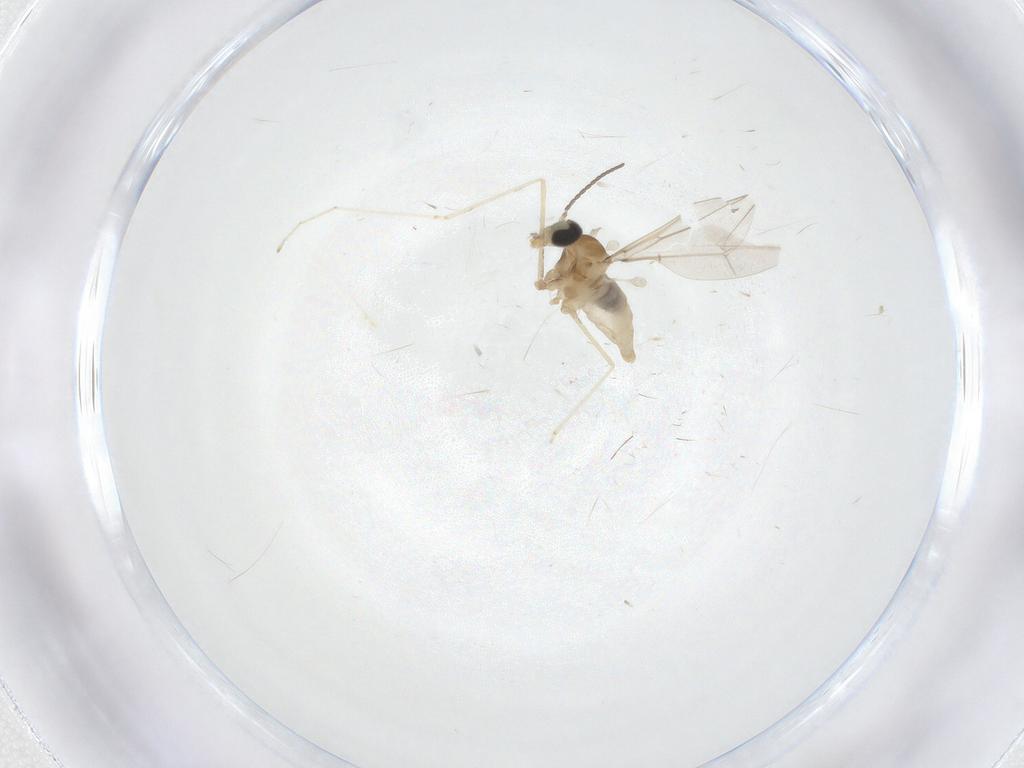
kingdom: Animalia
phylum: Arthropoda
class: Insecta
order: Diptera
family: Cecidomyiidae
